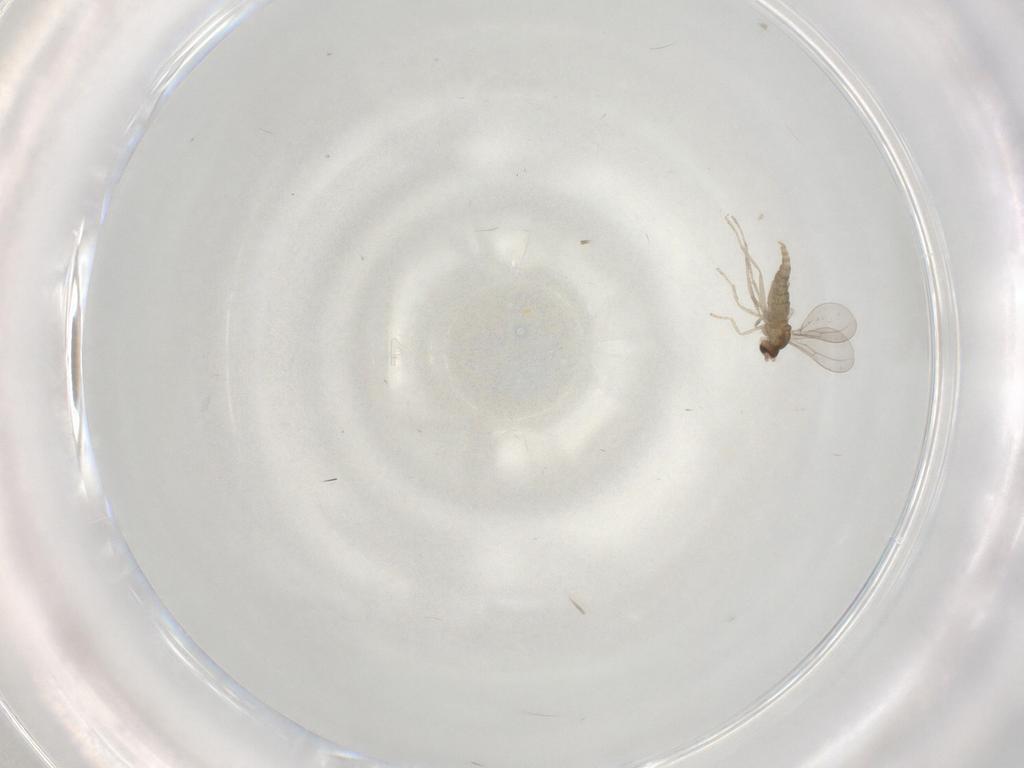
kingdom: Animalia
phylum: Arthropoda
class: Insecta
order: Diptera
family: Cecidomyiidae
